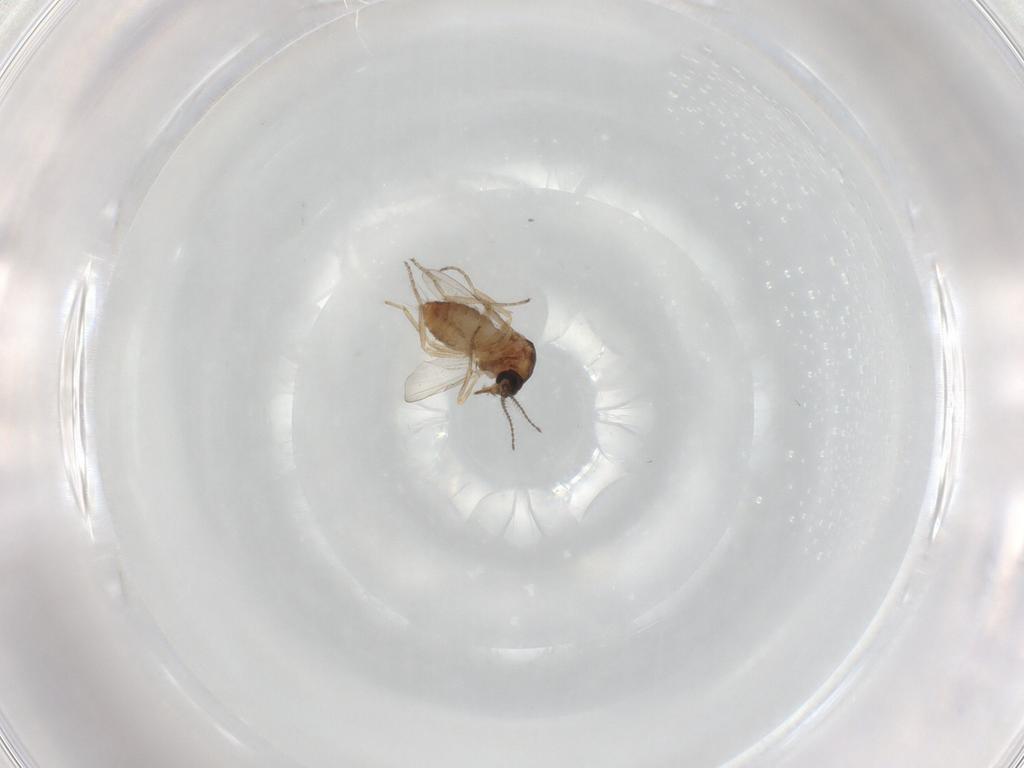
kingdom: Animalia
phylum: Arthropoda
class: Insecta
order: Diptera
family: Ceratopogonidae
